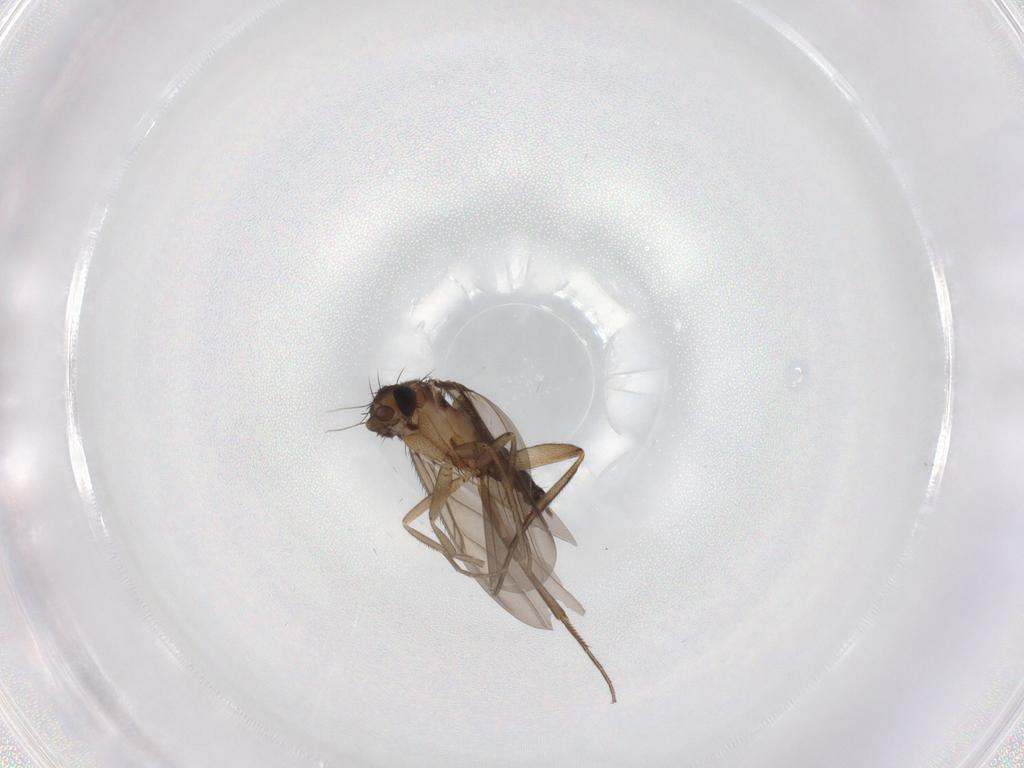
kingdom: Animalia
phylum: Arthropoda
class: Insecta
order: Diptera
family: Phoridae
